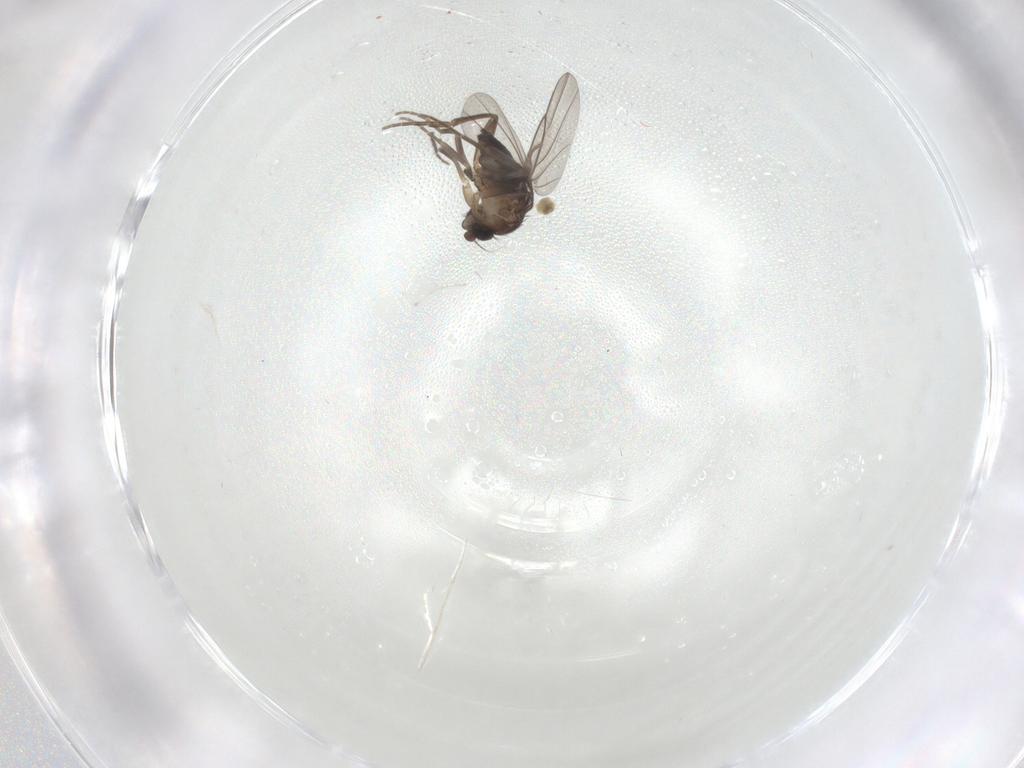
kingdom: Animalia
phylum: Arthropoda
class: Insecta
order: Diptera
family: Sciaridae
